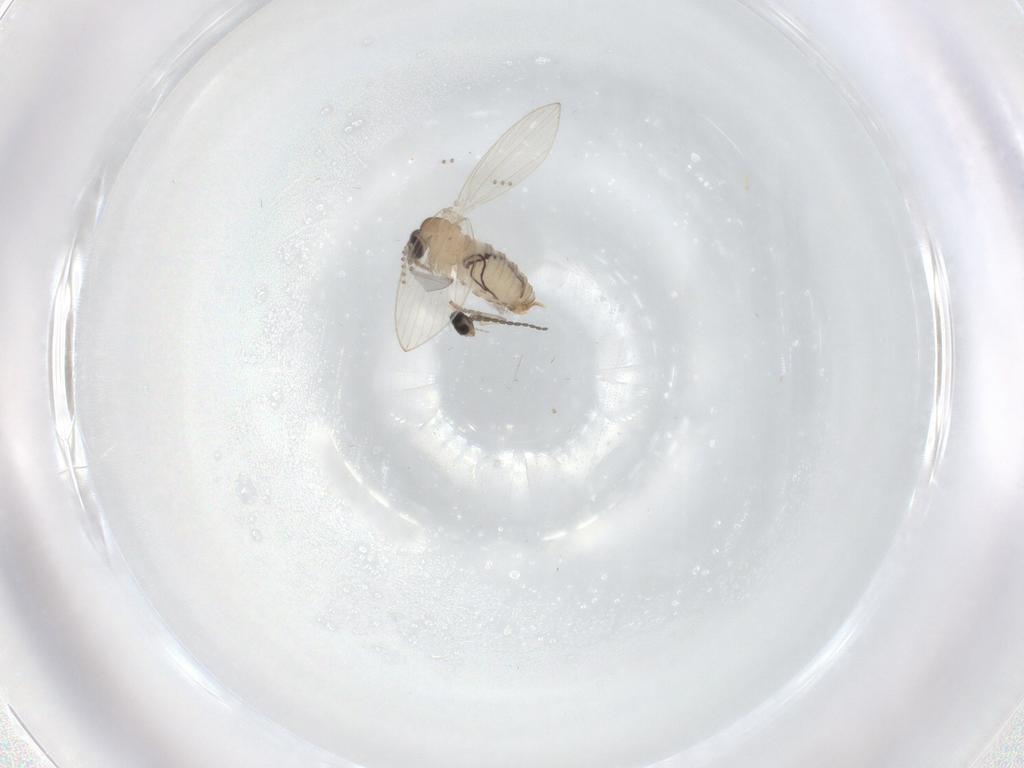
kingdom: Animalia
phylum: Arthropoda
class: Insecta
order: Diptera
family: Psychodidae
